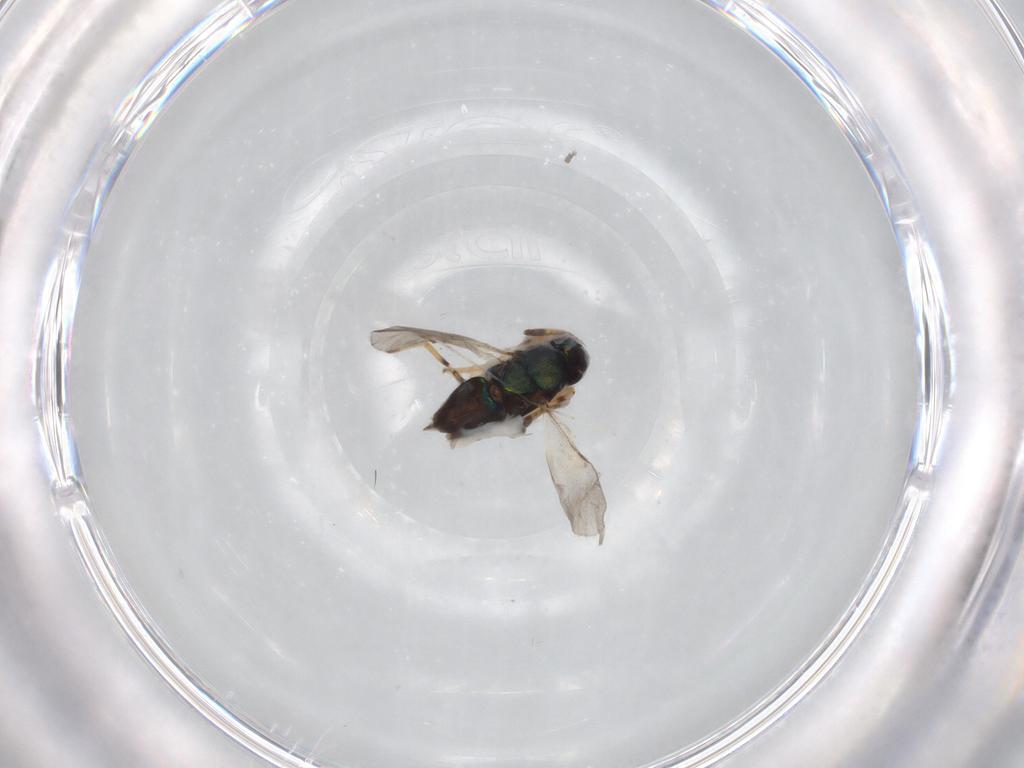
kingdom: Animalia
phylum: Arthropoda
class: Insecta
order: Diptera
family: Cecidomyiidae
